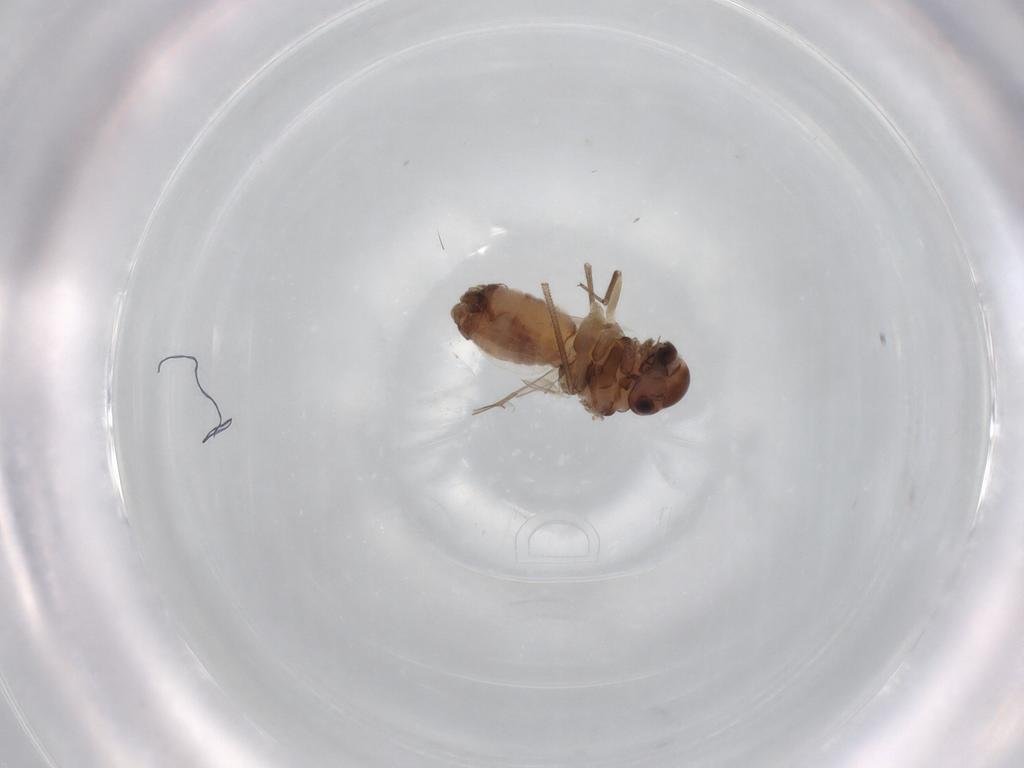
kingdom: Animalia
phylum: Arthropoda
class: Insecta
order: Psocodea
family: Peripsocidae
